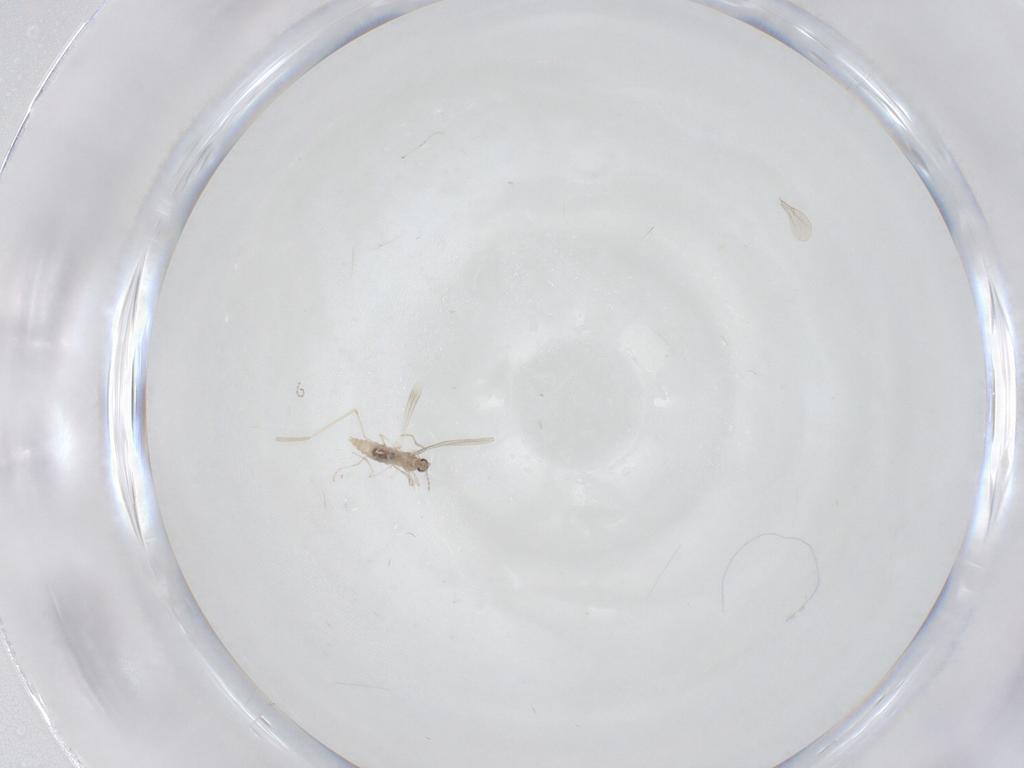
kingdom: Animalia
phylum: Arthropoda
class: Insecta
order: Diptera
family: Cecidomyiidae
